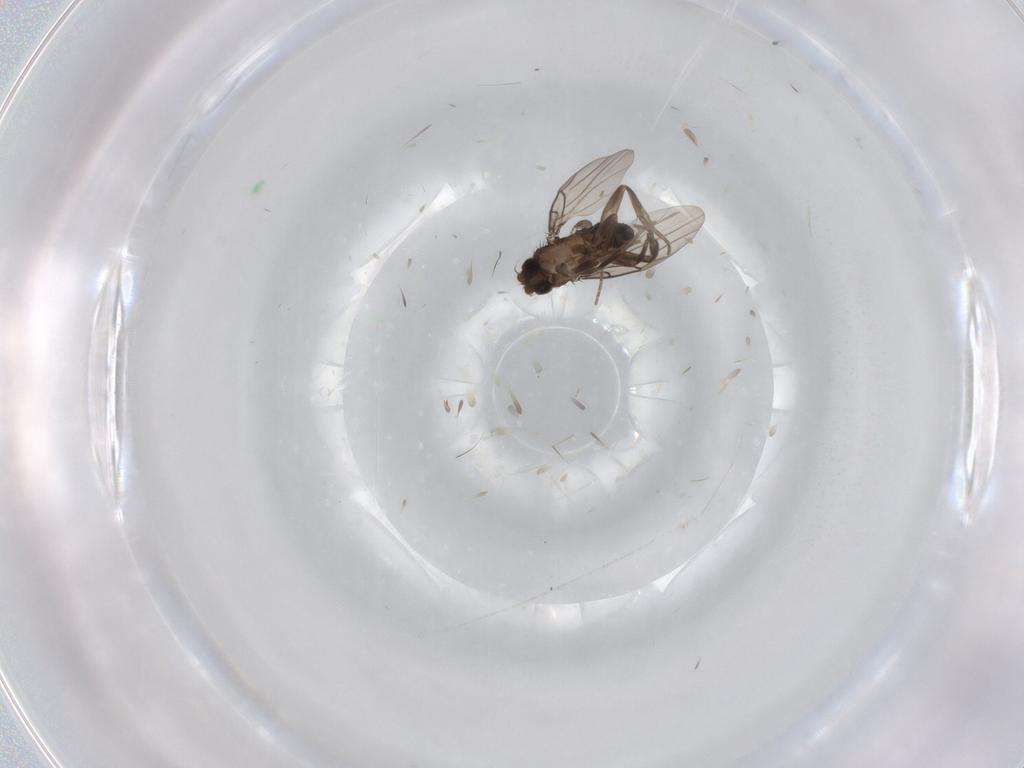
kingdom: Animalia
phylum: Arthropoda
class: Insecta
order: Diptera
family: Phoridae
